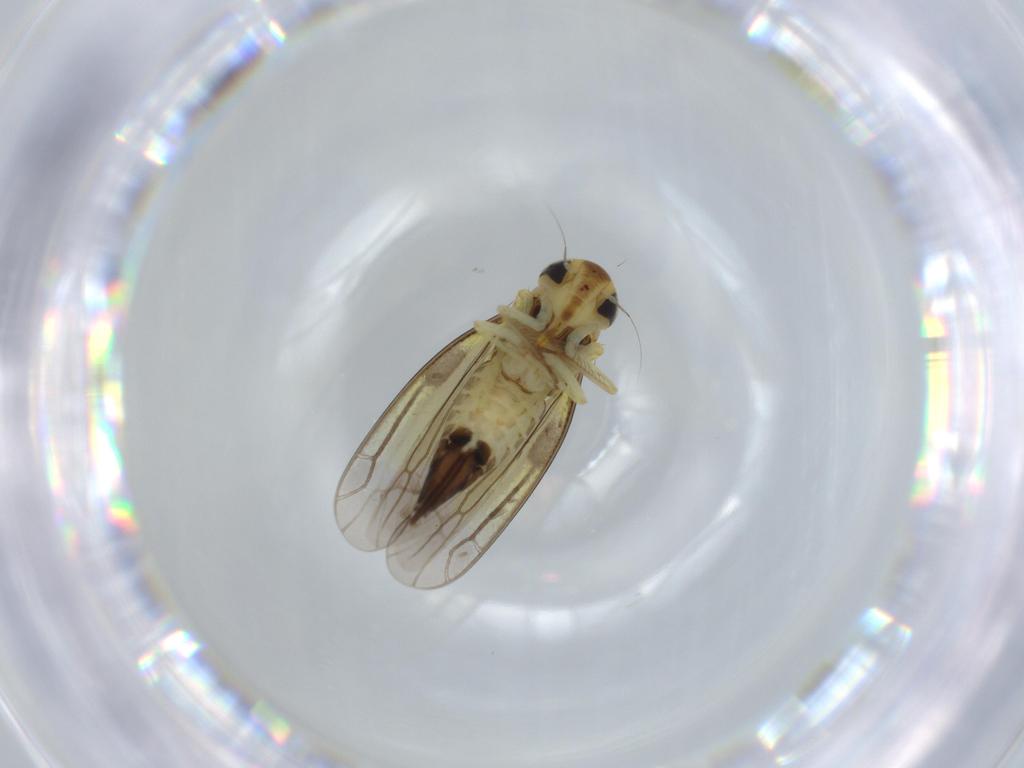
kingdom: Animalia
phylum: Arthropoda
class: Insecta
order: Hemiptera
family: Cicadellidae
